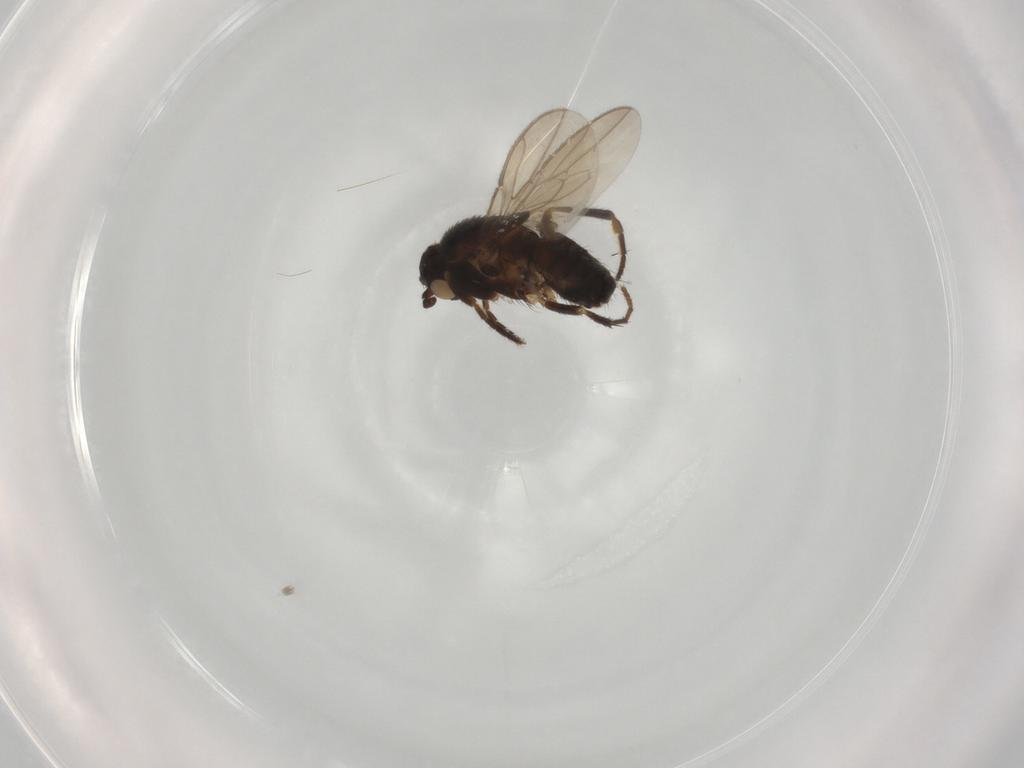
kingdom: Animalia
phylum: Arthropoda
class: Insecta
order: Diptera
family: Sphaeroceridae
